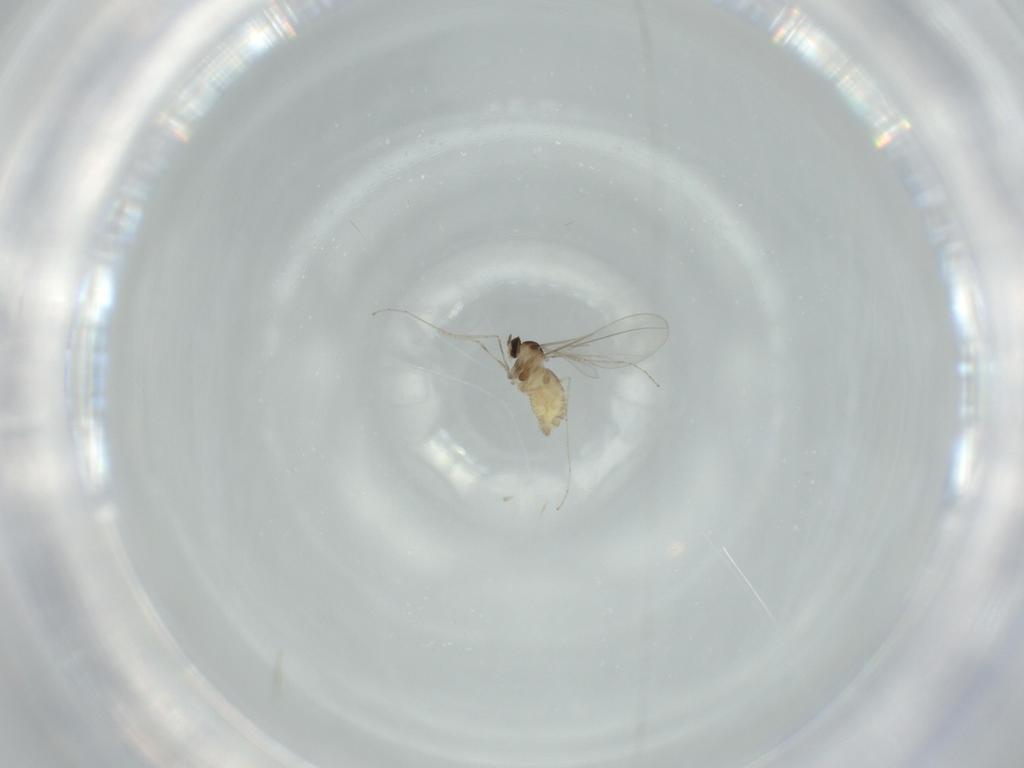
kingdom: Animalia
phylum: Arthropoda
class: Insecta
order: Diptera
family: Cecidomyiidae
